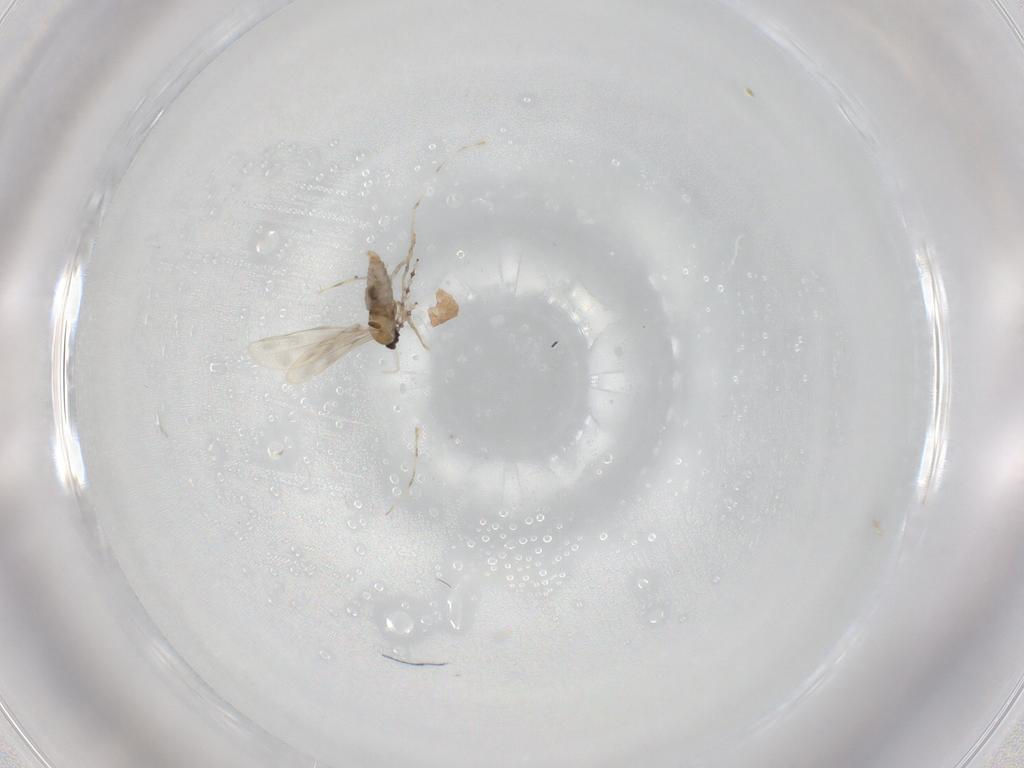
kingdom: Animalia
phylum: Arthropoda
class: Insecta
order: Diptera
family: Cecidomyiidae
